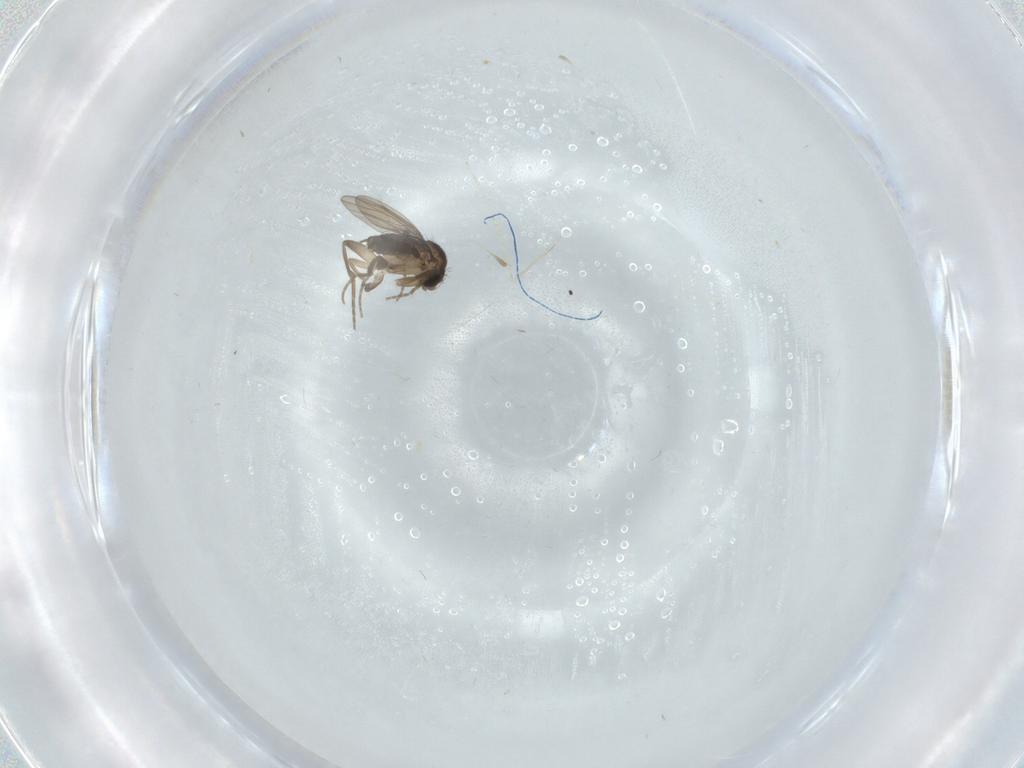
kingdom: Animalia
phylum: Arthropoda
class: Insecta
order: Diptera
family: Cecidomyiidae
